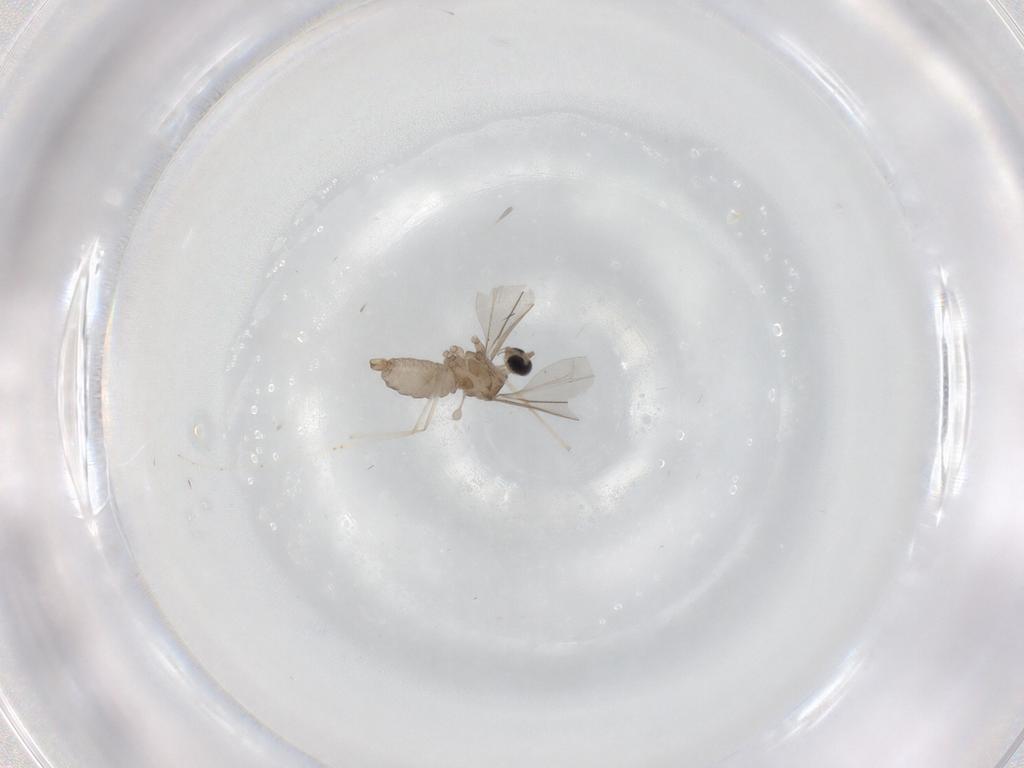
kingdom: Animalia
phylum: Arthropoda
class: Insecta
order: Diptera
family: Cecidomyiidae
